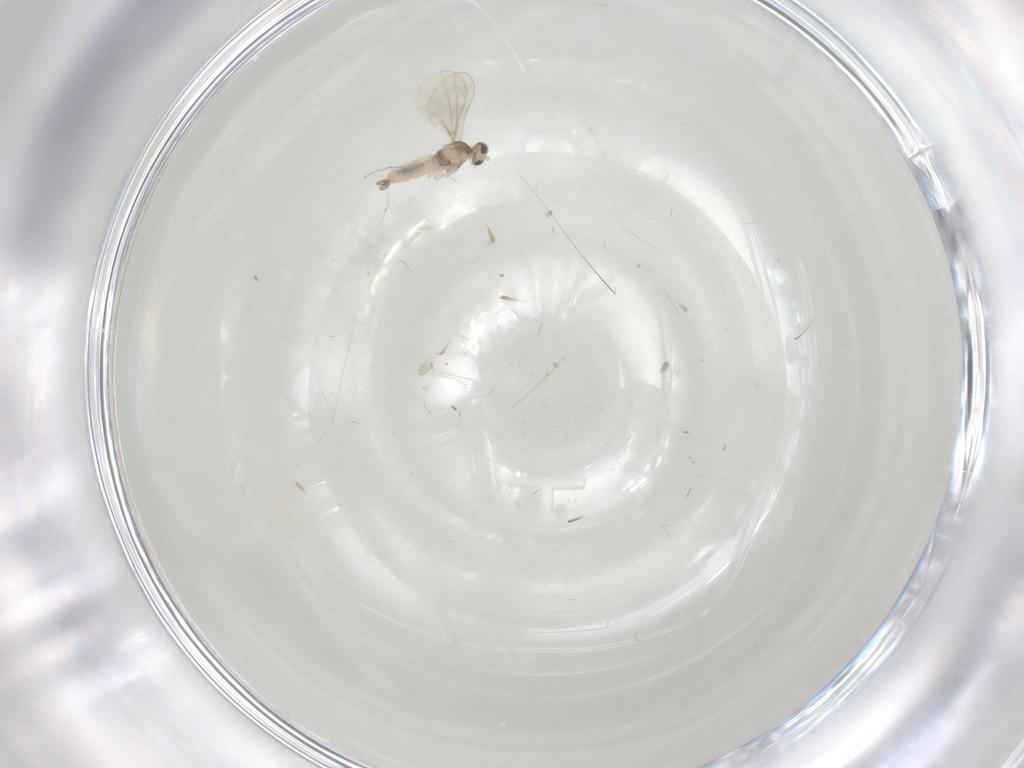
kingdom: Animalia
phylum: Arthropoda
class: Insecta
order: Diptera
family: Cecidomyiidae
